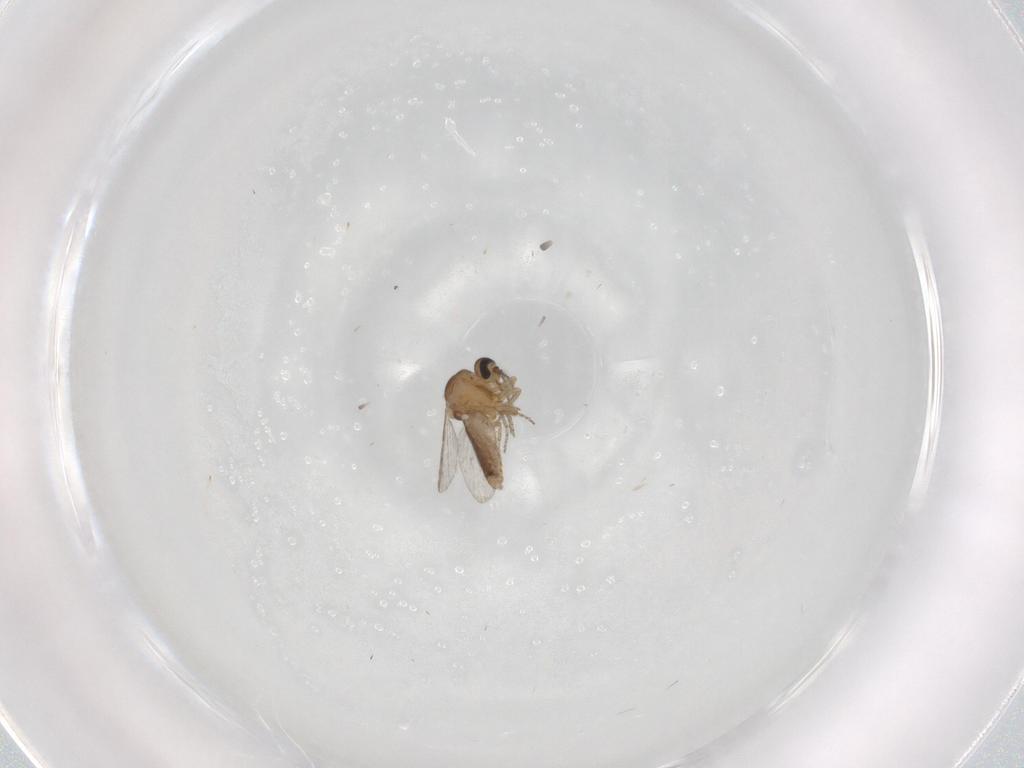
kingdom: Animalia
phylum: Arthropoda
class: Insecta
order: Diptera
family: Ceratopogonidae
